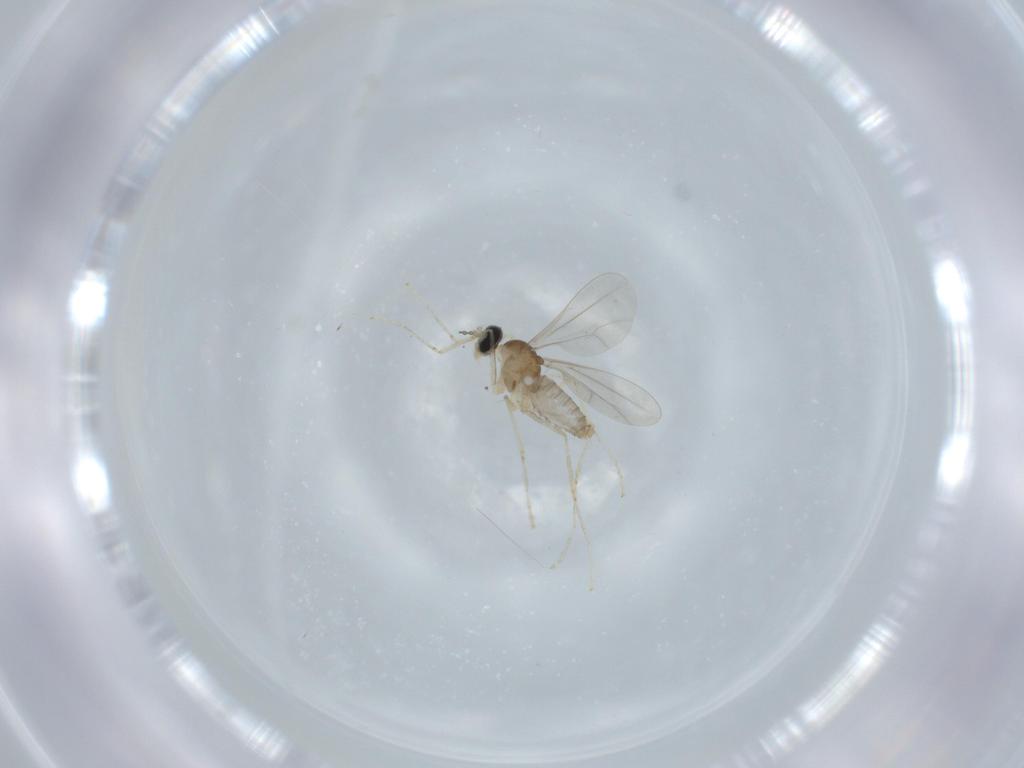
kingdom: Animalia
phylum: Arthropoda
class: Insecta
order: Diptera
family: Cecidomyiidae
